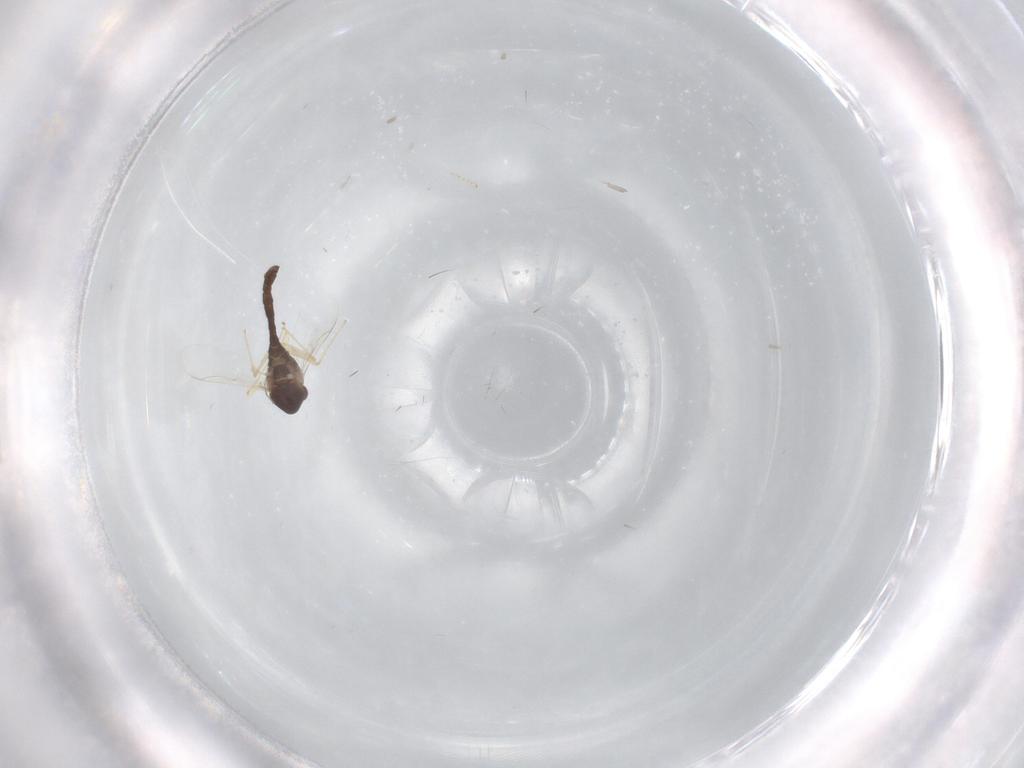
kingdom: Animalia
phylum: Arthropoda
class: Insecta
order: Diptera
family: Chironomidae
